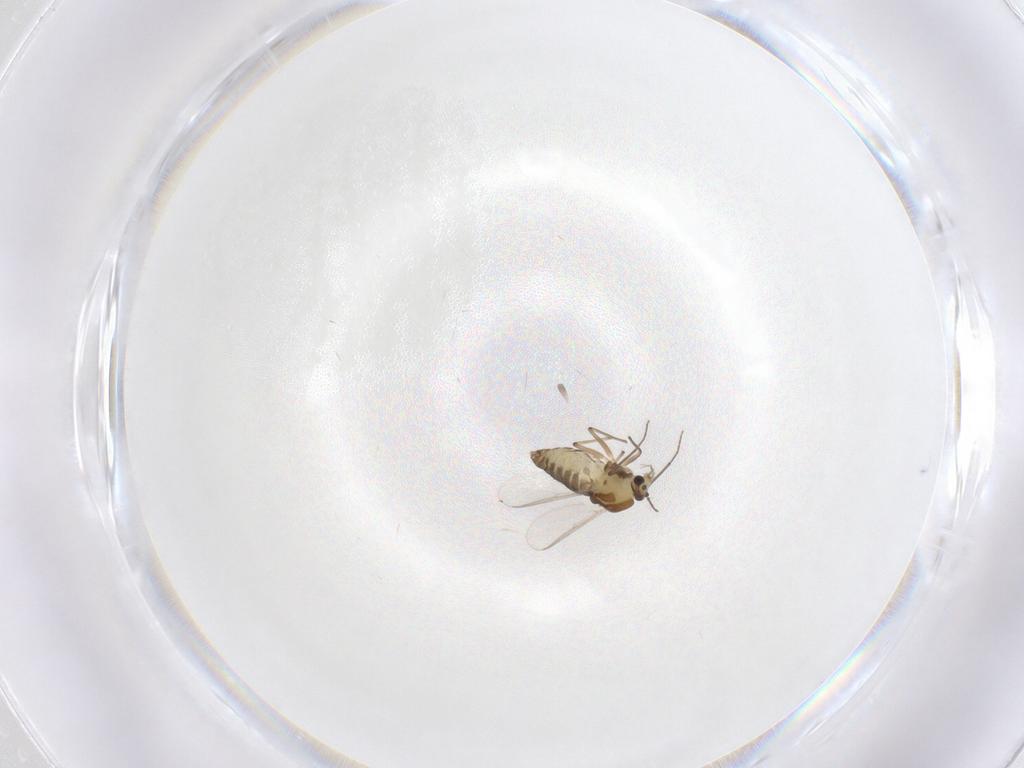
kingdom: Animalia
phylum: Arthropoda
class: Insecta
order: Diptera
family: Chironomidae
